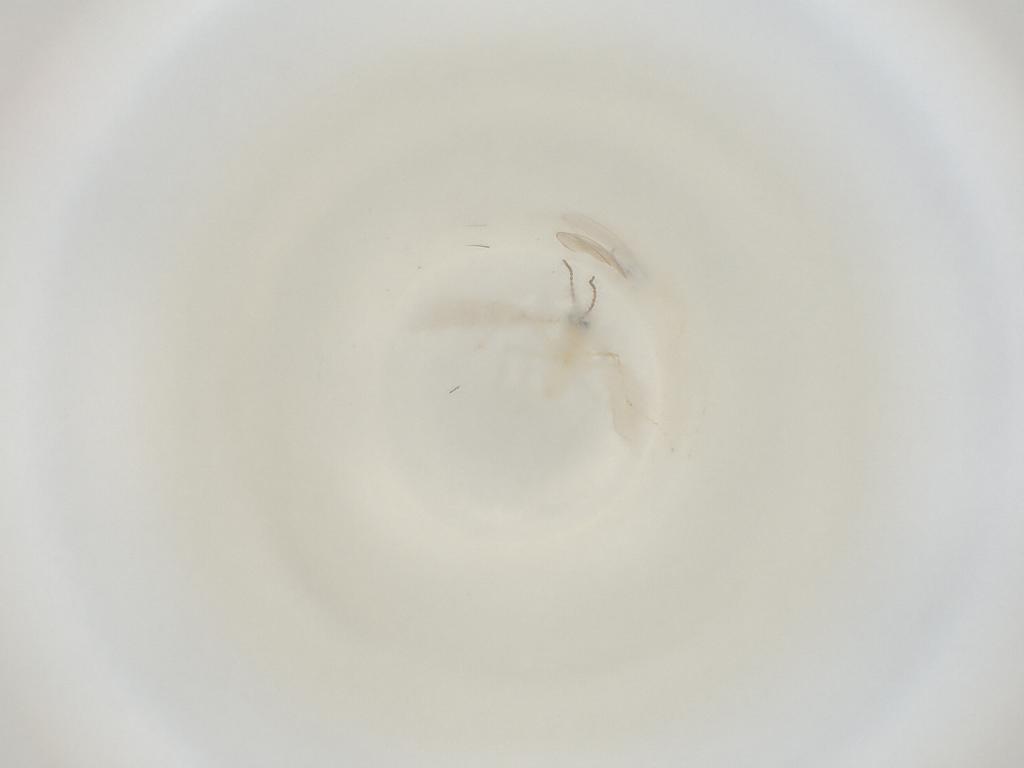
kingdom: Animalia
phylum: Arthropoda
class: Insecta
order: Diptera
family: Cecidomyiidae
